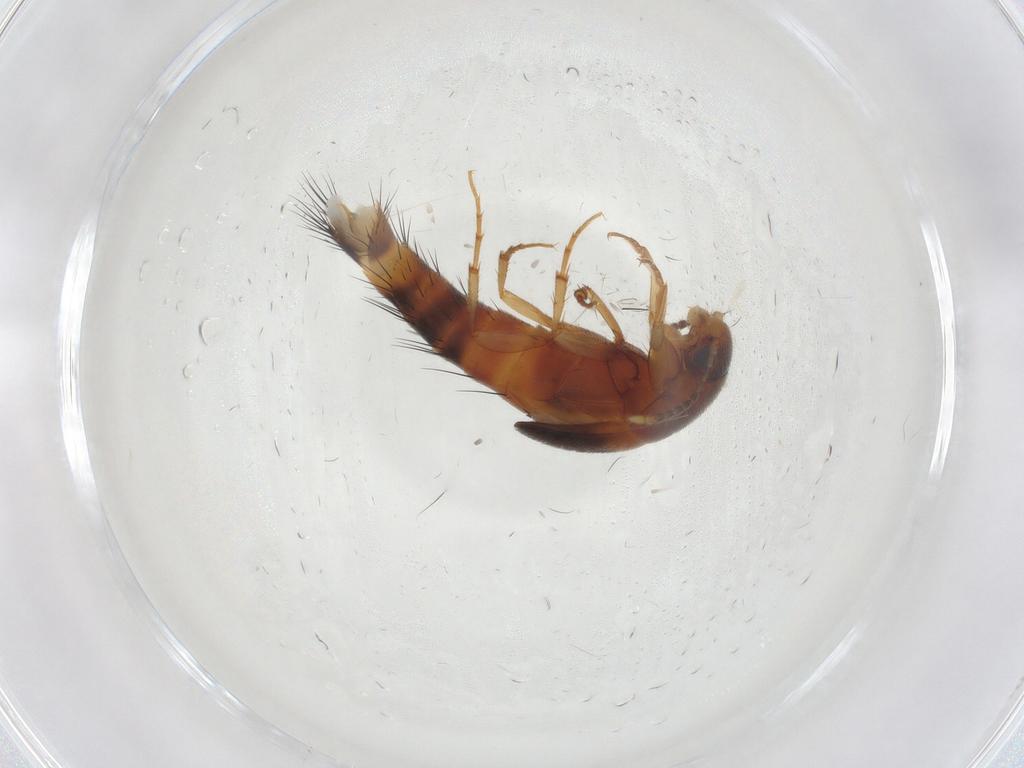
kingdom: Animalia
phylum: Arthropoda
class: Insecta
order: Coleoptera
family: Staphylinidae
